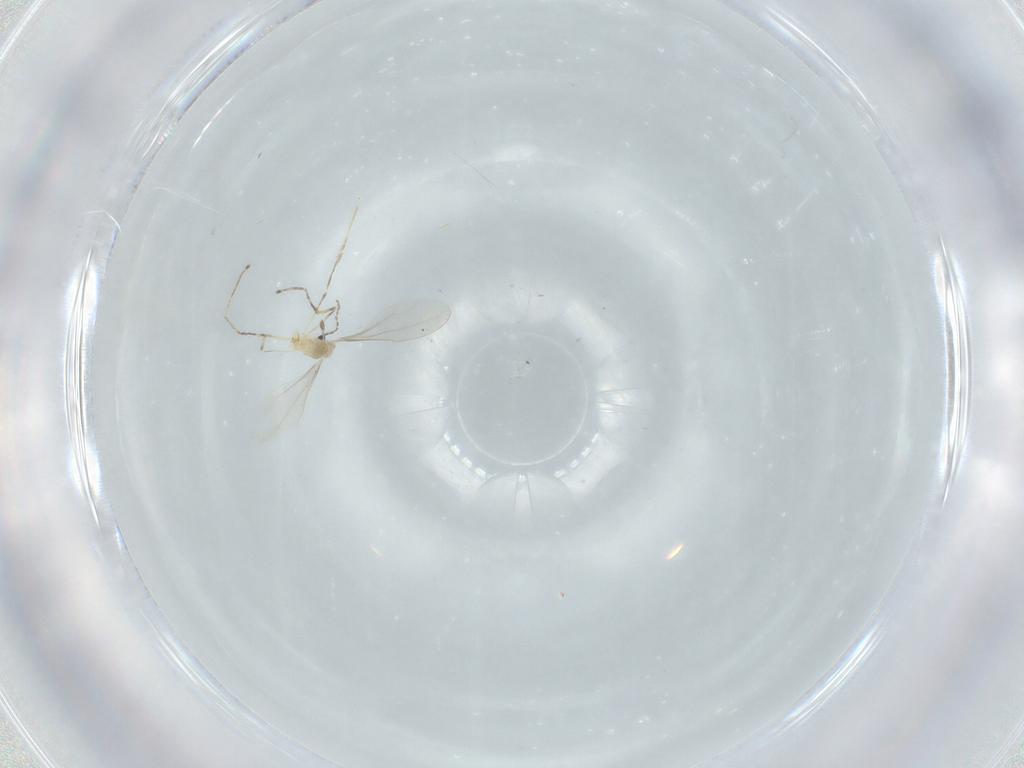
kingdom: Animalia
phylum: Arthropoda
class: Insecta
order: Diptera
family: Cecidomyiidae
